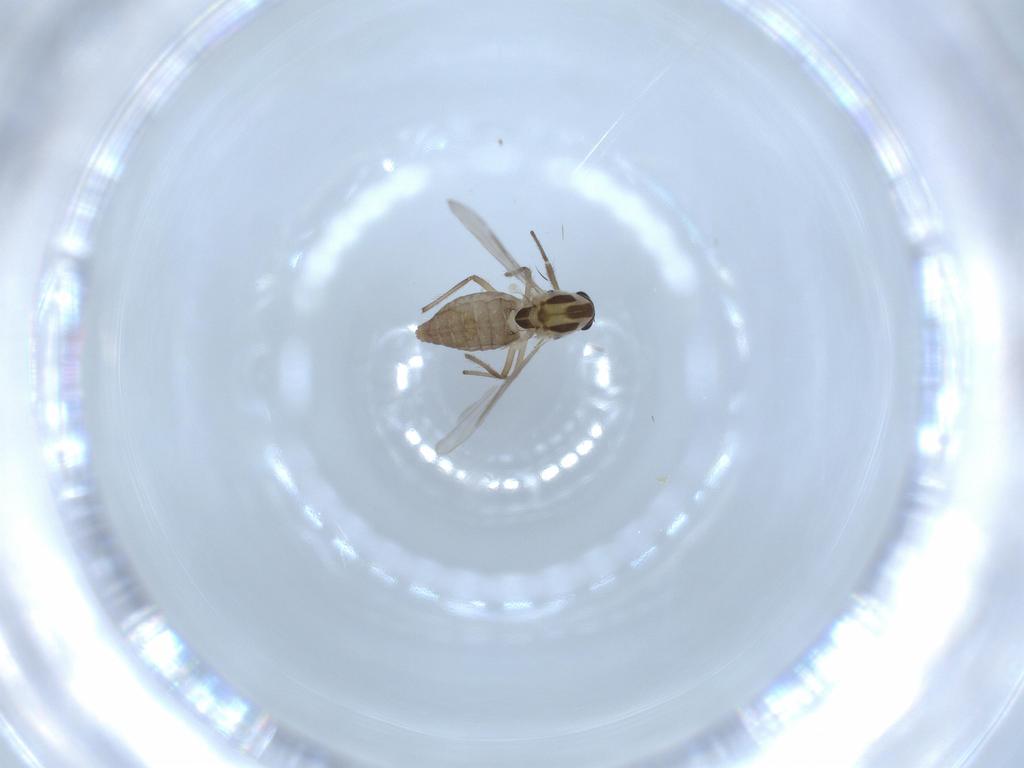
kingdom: Animalia
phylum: Arthropoda
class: Insecta
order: Diptera
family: Chironomidae
